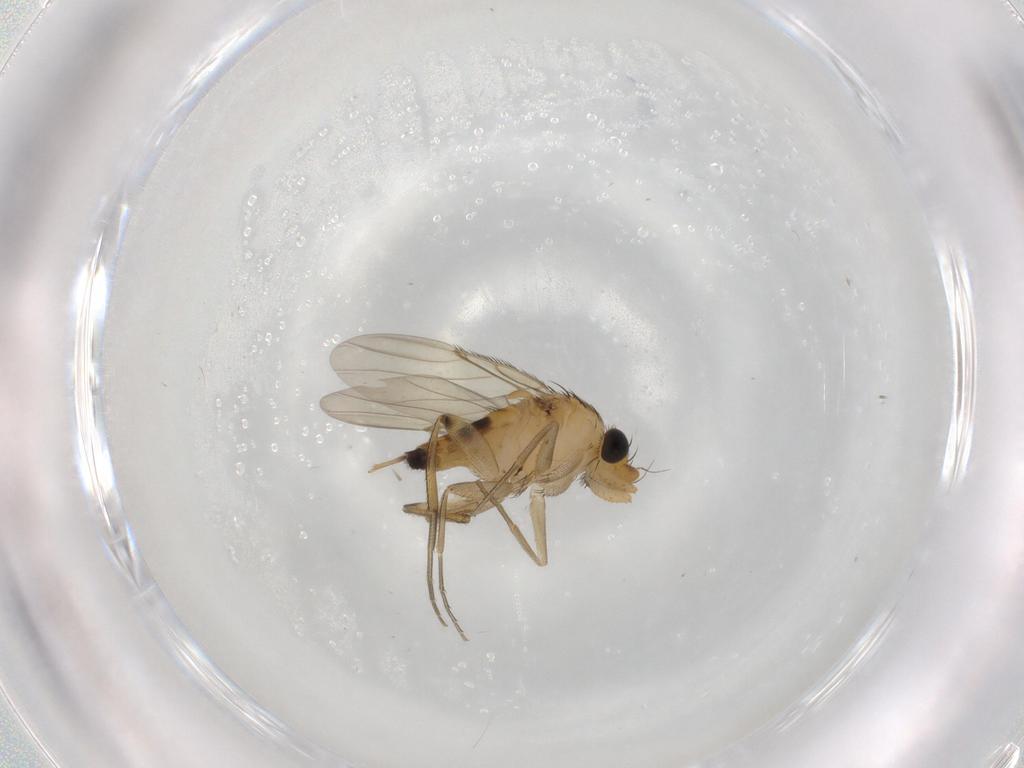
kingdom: Animalia
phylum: Arthropoda
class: Insecta
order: Diptera
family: Phoridae
